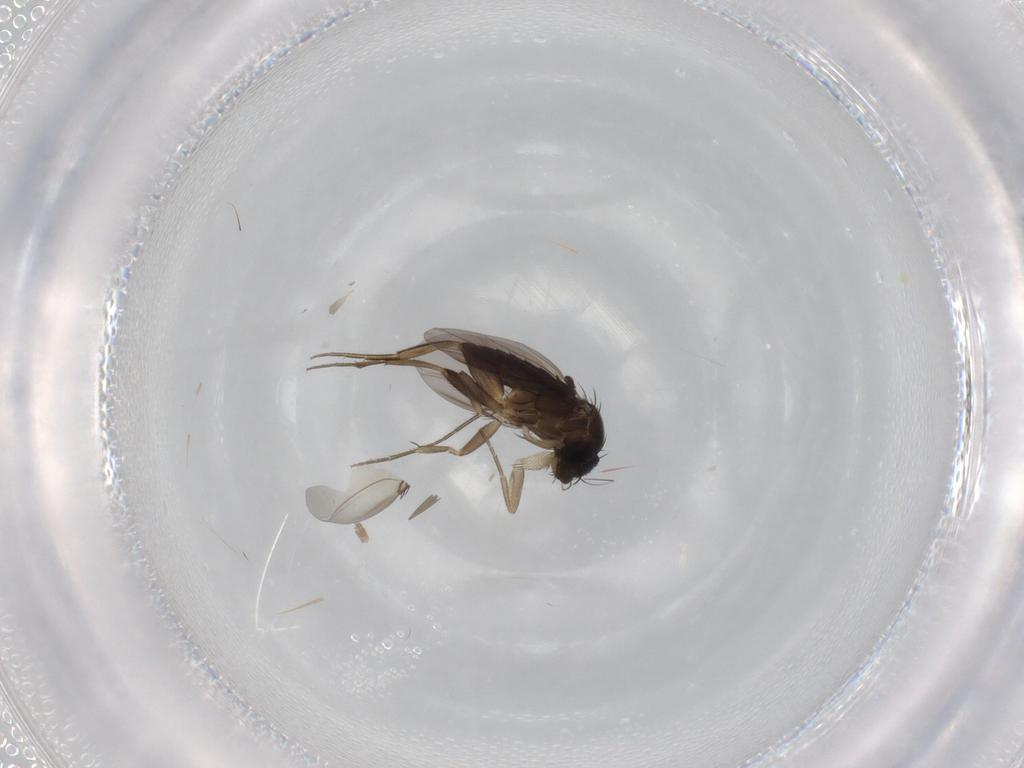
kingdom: Animalia
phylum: Arthropoda
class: Insecta
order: Diptera
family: Phoridae
